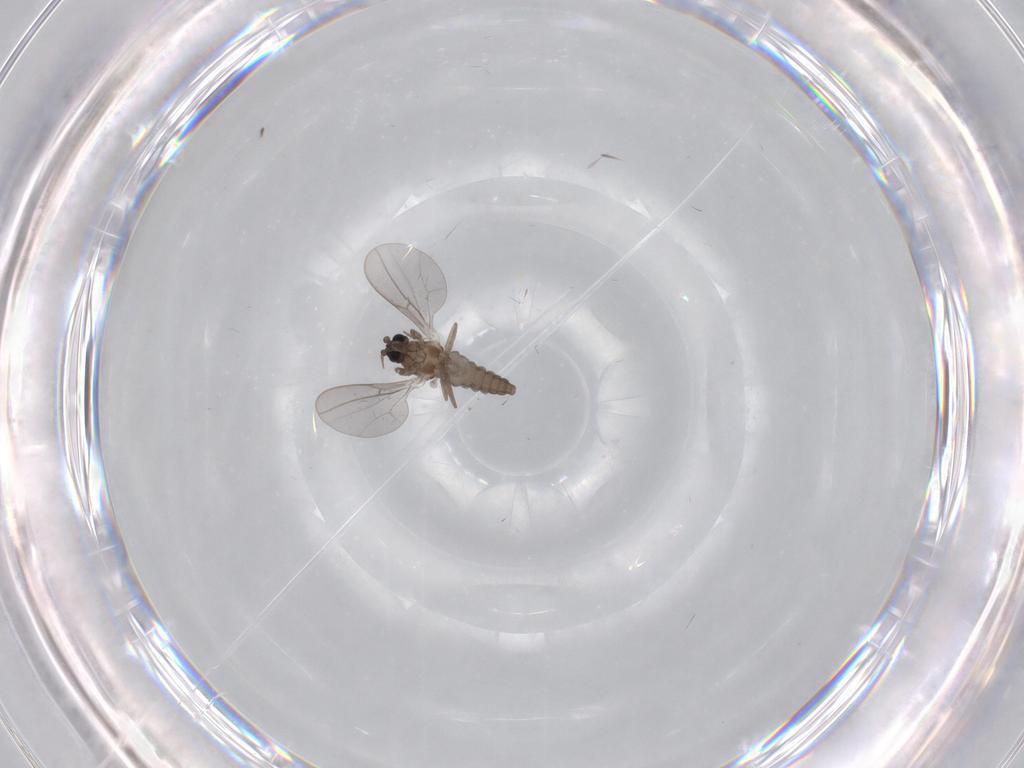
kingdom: Animalia
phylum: Arthropoda
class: Insecta
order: Diptera
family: Cecidomyiidae
